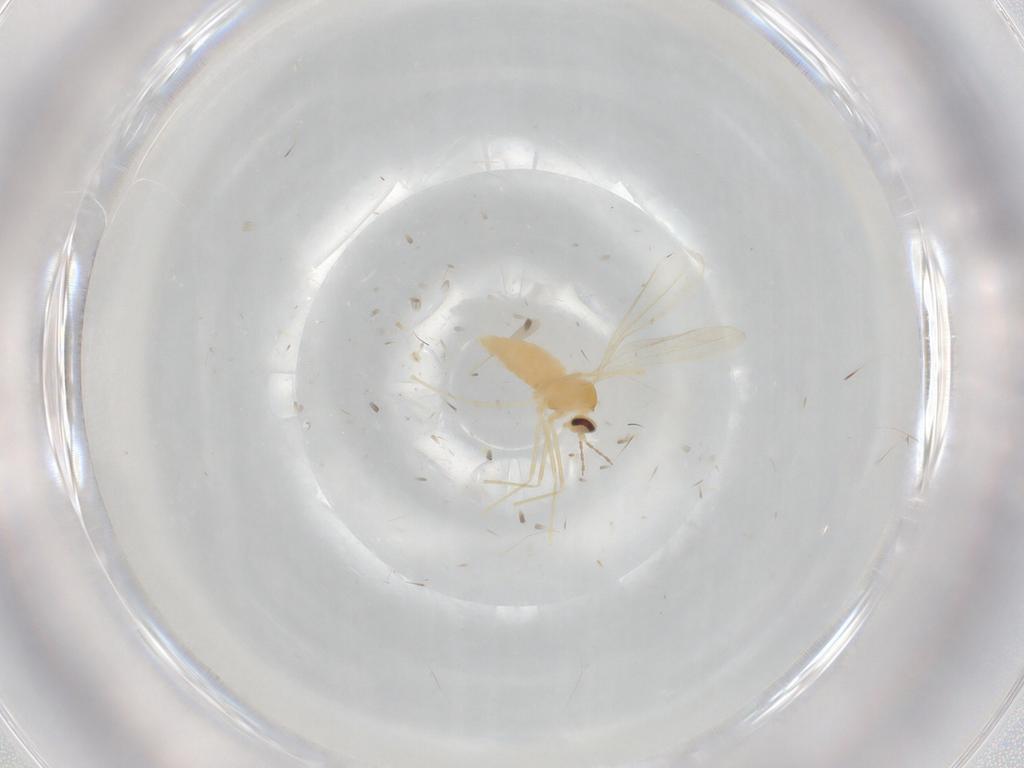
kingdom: Animalia
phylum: Arthropoda
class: Insecta
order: Diptera
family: Cecidomyiidae
